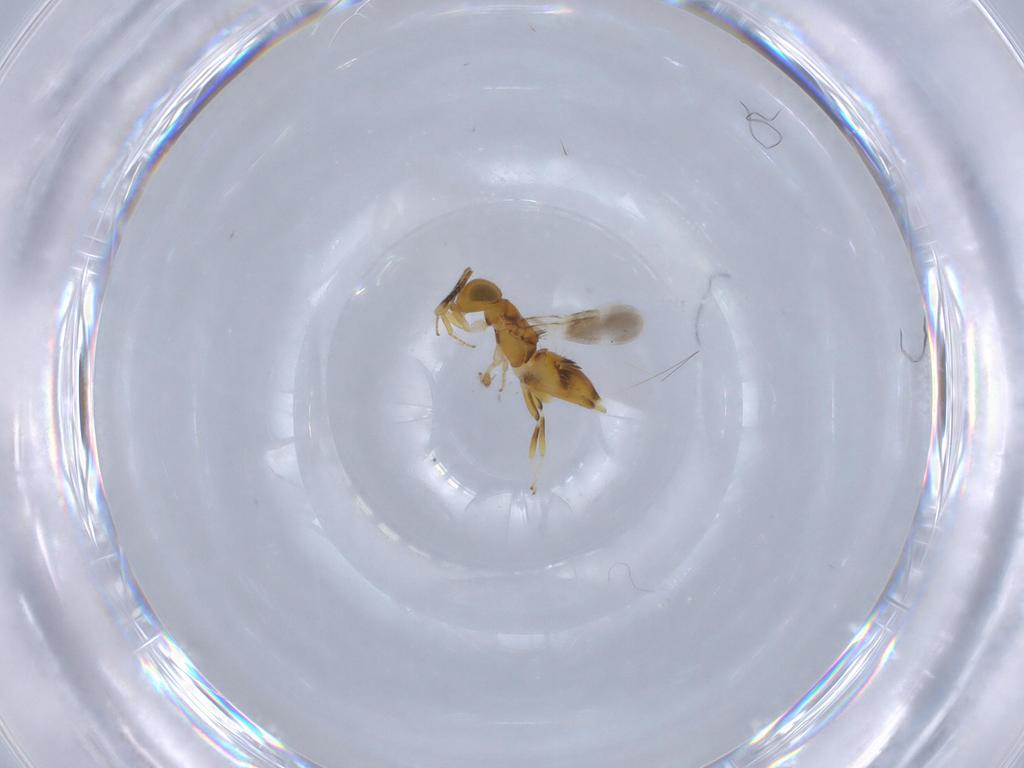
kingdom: Animalia
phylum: Arthropoda
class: Insecta
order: Hymenoptera
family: Encyrtidae
